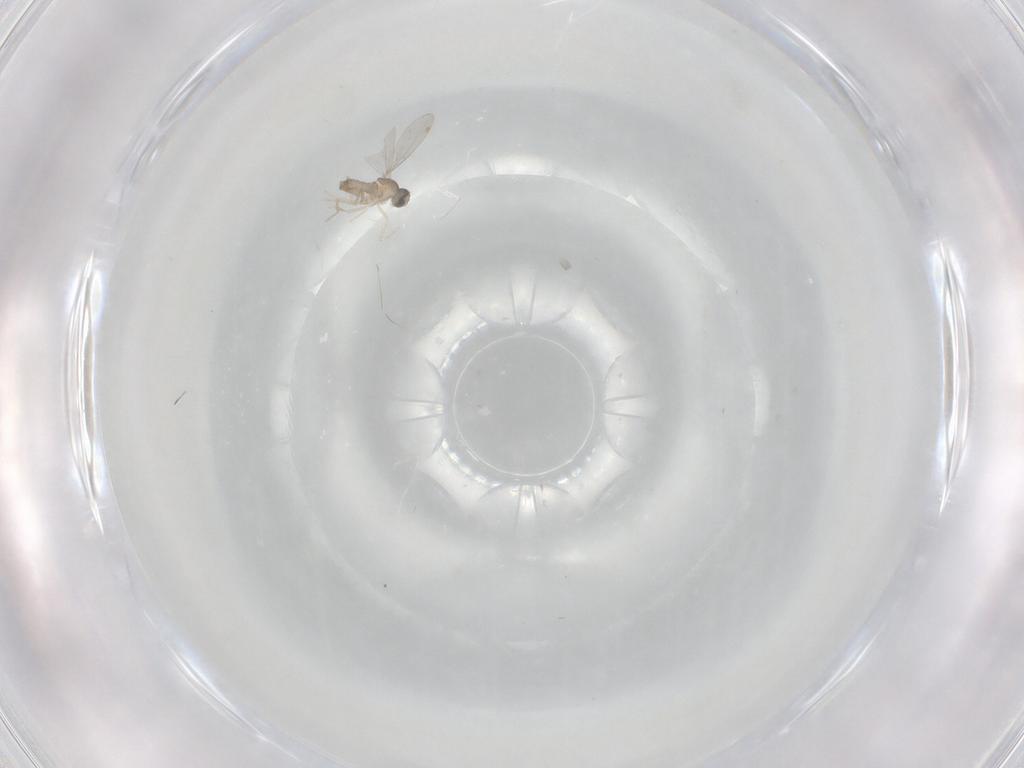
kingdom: Animalia
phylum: Arthropoda
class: Insecta
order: Diptera
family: Cecidomyiidae
